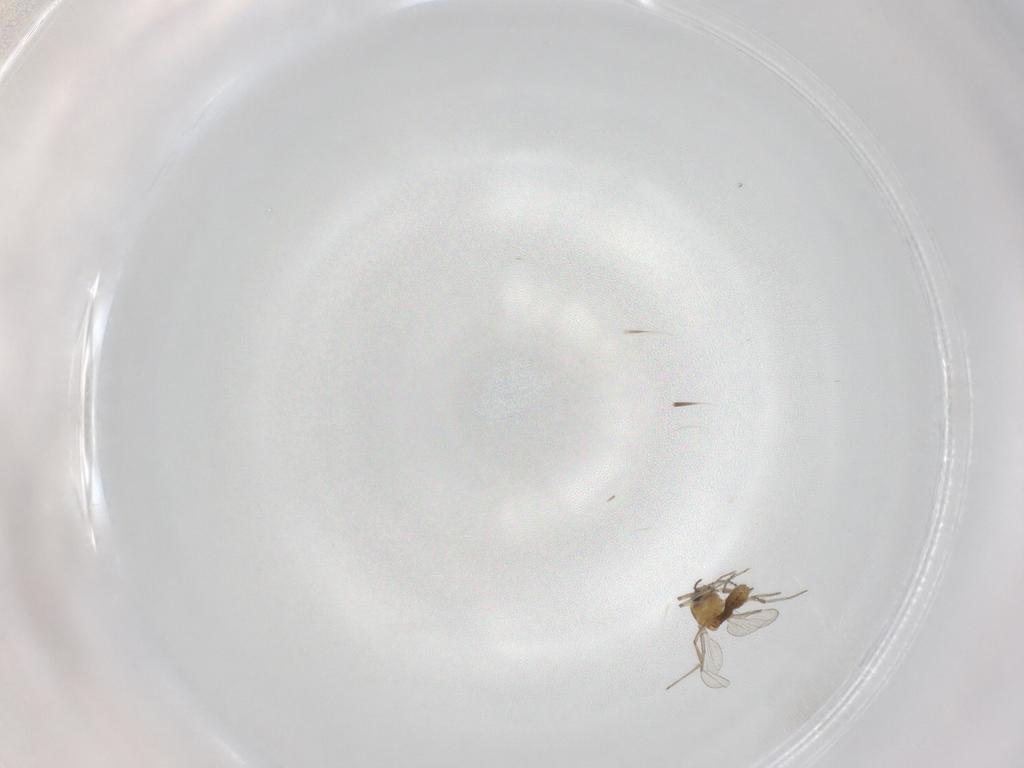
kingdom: Animalia
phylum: Arthropoda
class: Insecta
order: Diptera
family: Ceratopogonidae
